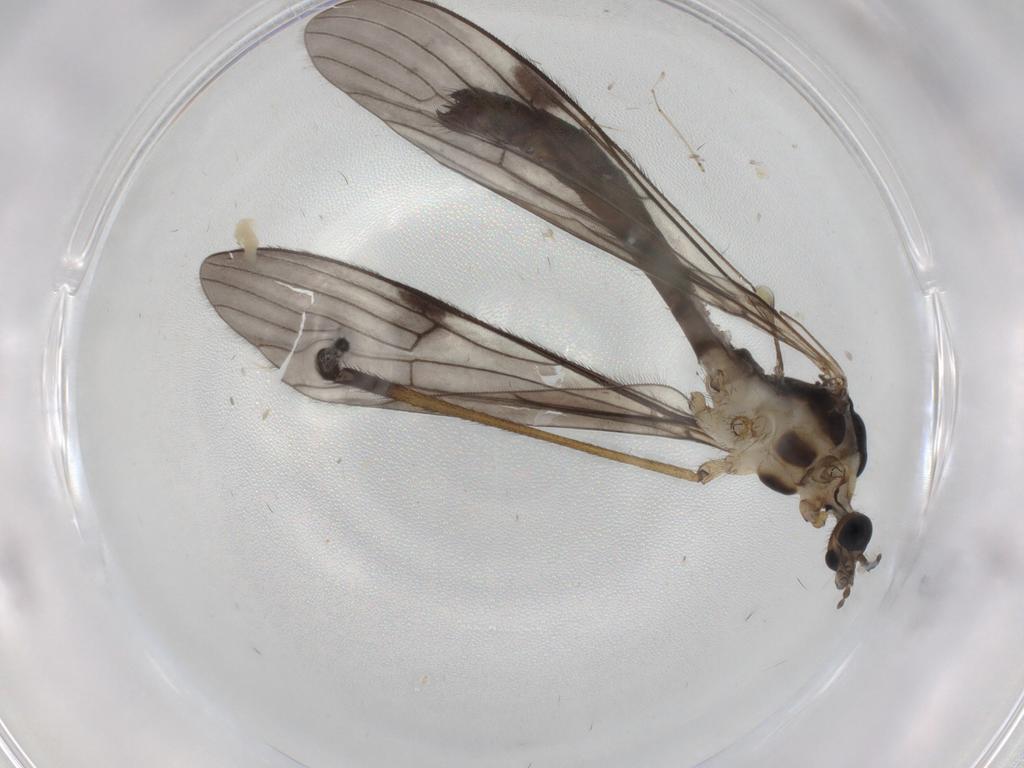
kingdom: Animalia
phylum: Arthropoda
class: Insecta
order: Diptera
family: Limoniidae
